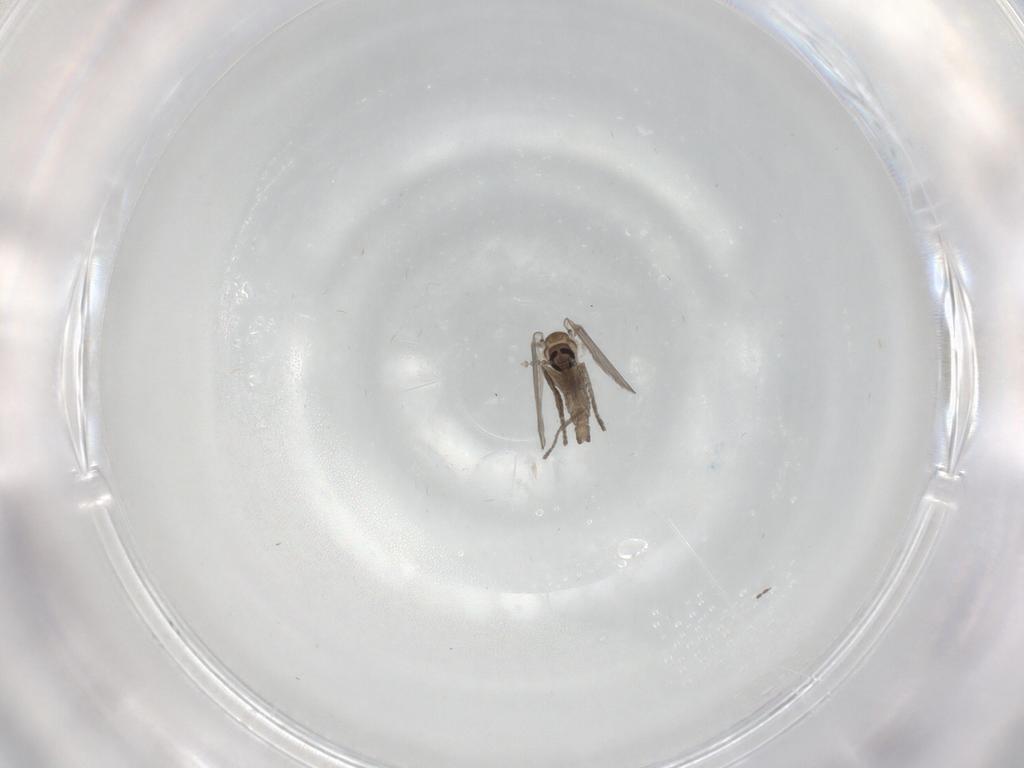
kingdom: Animalia
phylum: Arthropoda
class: Insecta
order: Diptera
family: Psychodidae
